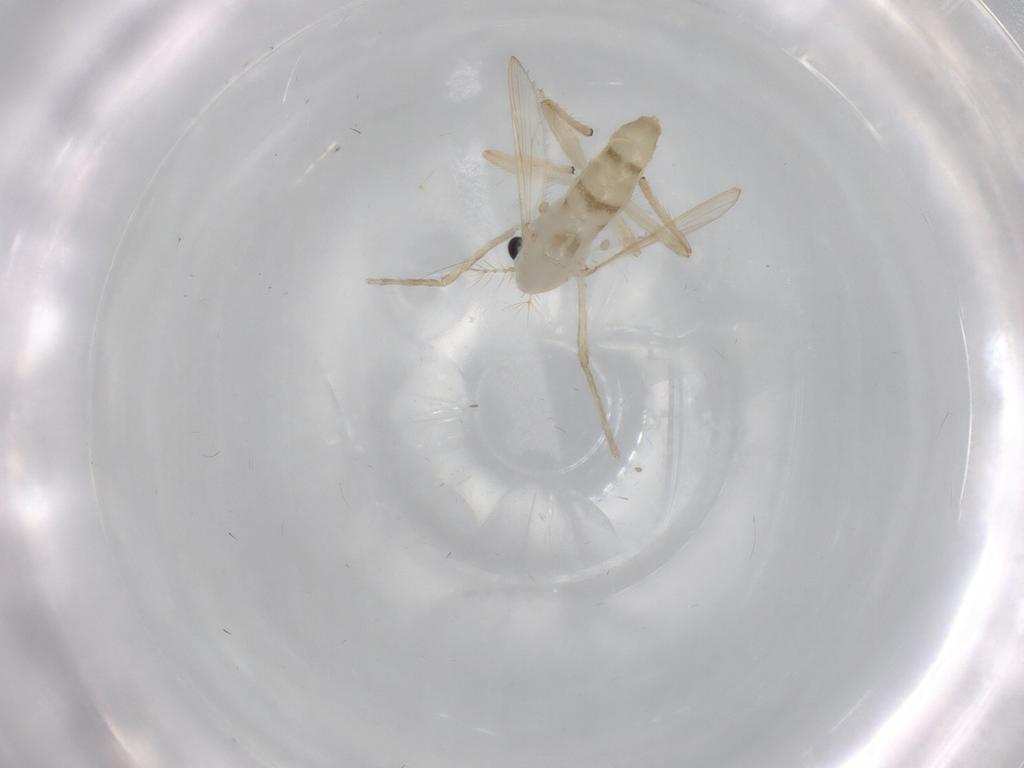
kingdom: Animalia
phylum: Arthropoda
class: Insecta
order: Diptera
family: Chironomidae
